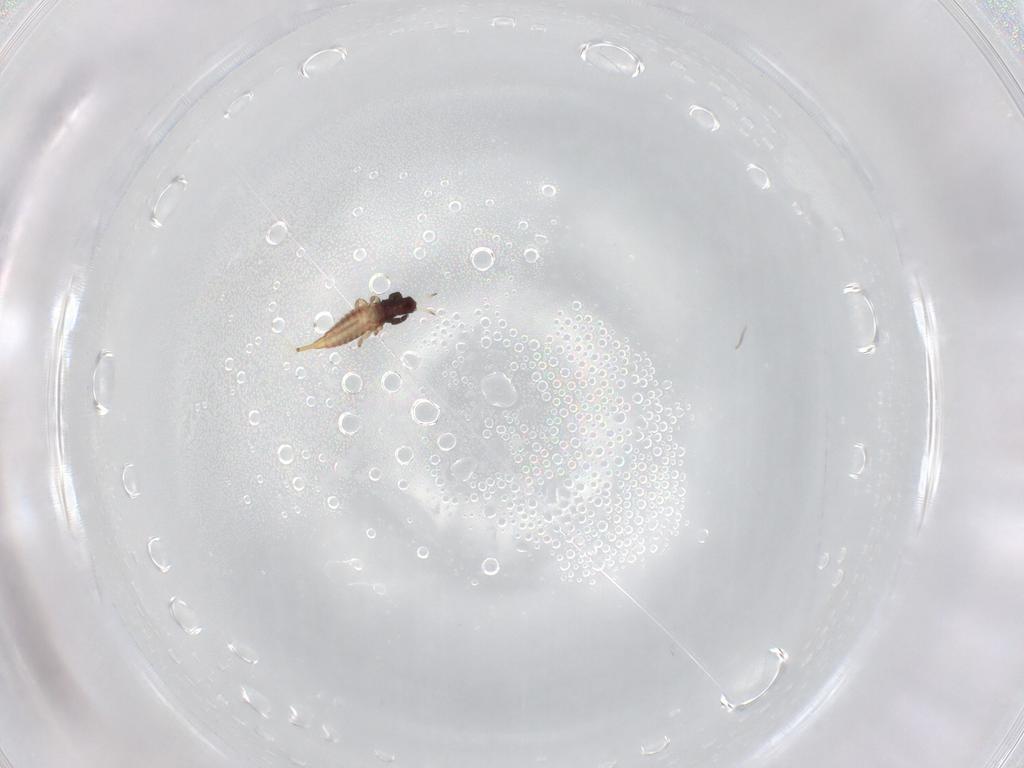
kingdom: Animalia
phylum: Arthropoda
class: Insecta
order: Thysanoptera
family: Phlaeothripidae
